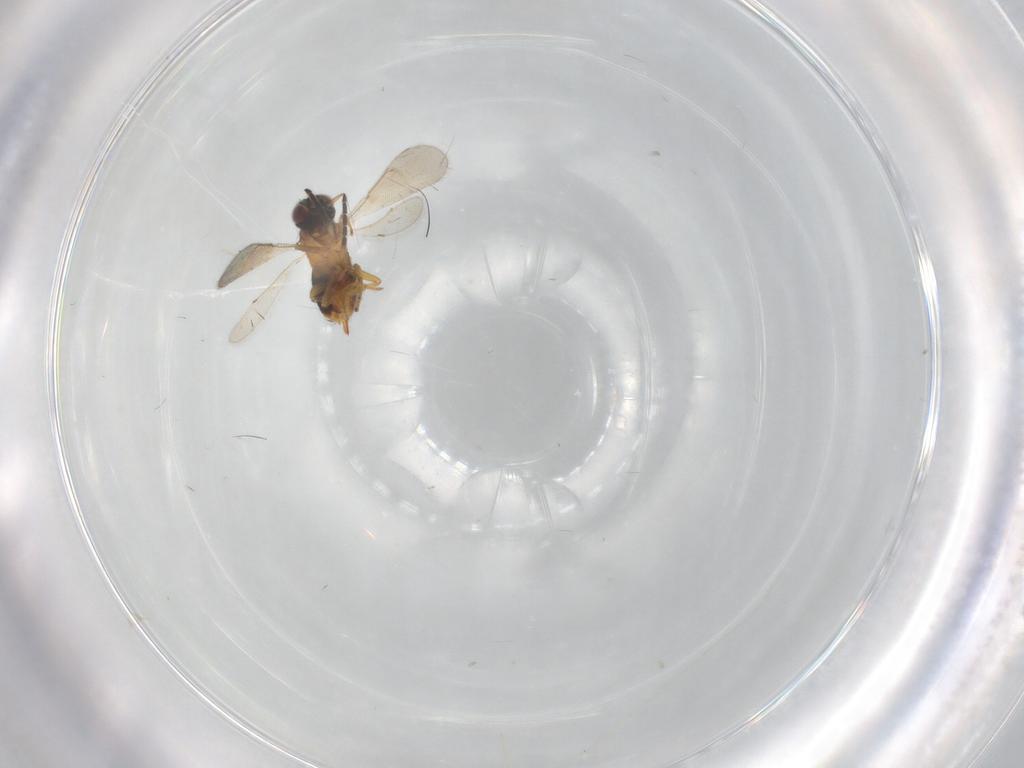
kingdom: Animalia
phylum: Arthropoda
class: Insecta
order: Hymenoptera
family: Aphelinidae
